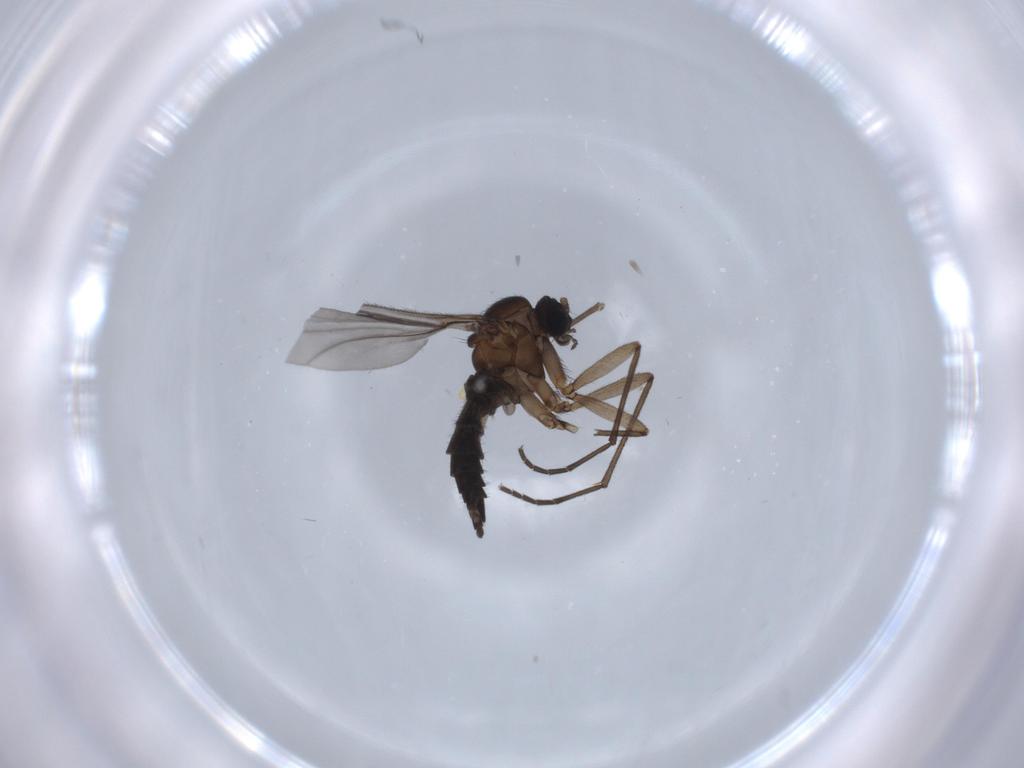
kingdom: Animalia
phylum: Arthropoda
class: Insecta
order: Diptera
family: Sciaridae
